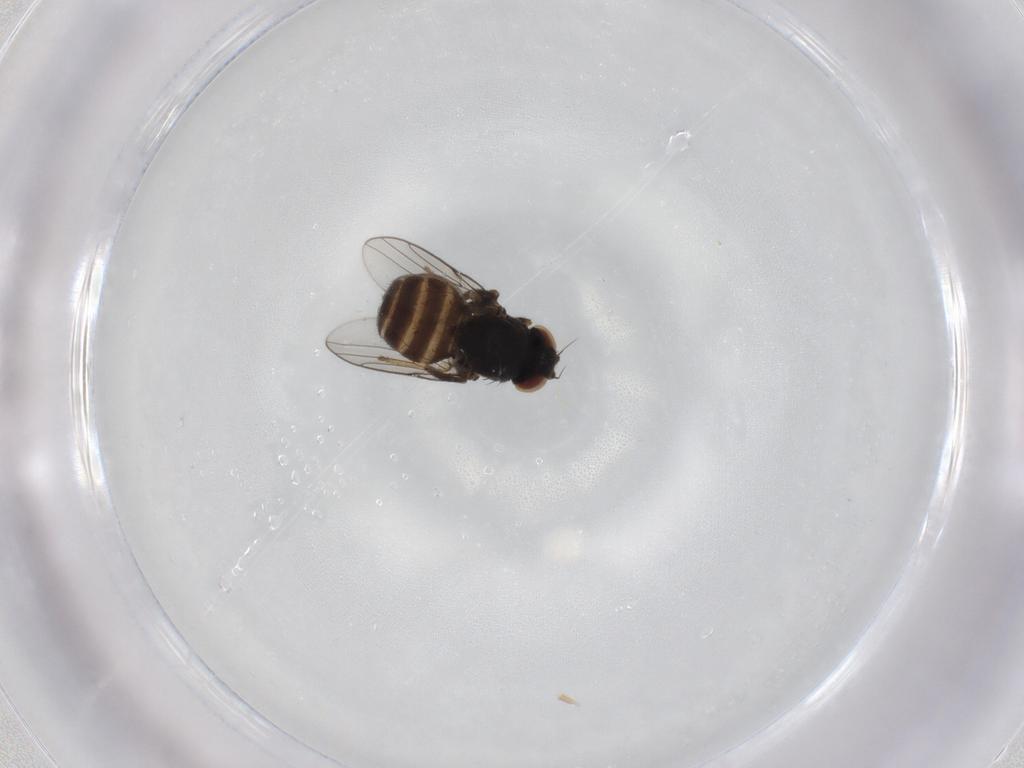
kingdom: Animalia
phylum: Arthropoda
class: Insecta
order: Diptera
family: Chloropidae
